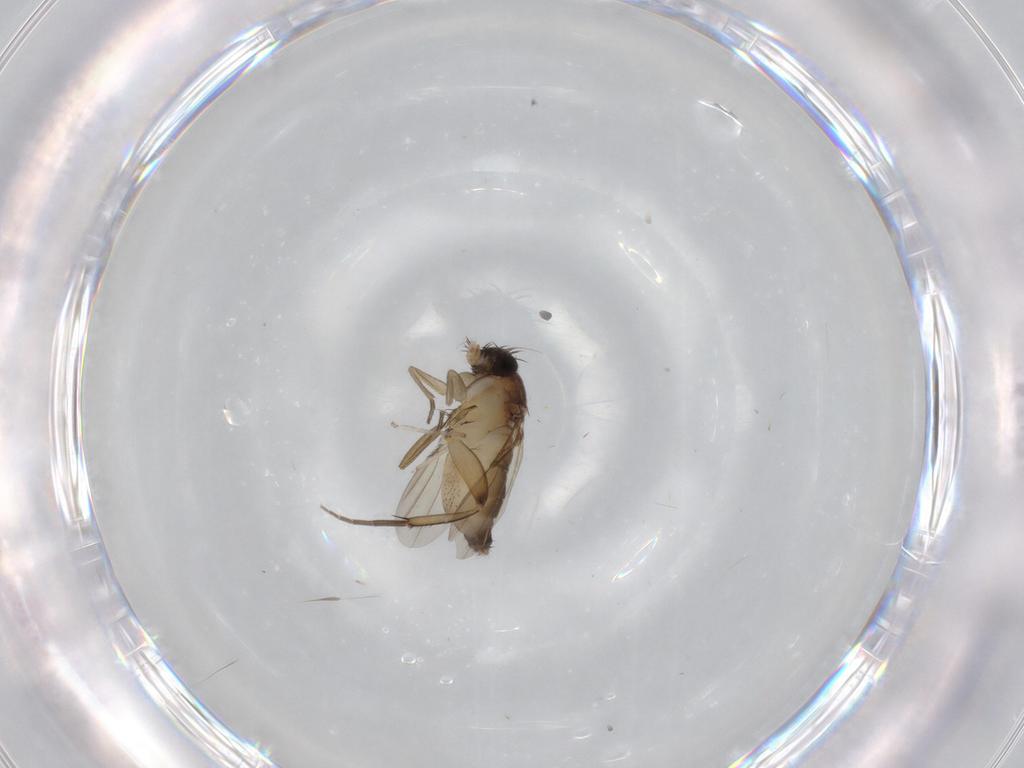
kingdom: Animalia
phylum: Arthropoda
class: Insecta
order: Diptera
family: Phoridae
